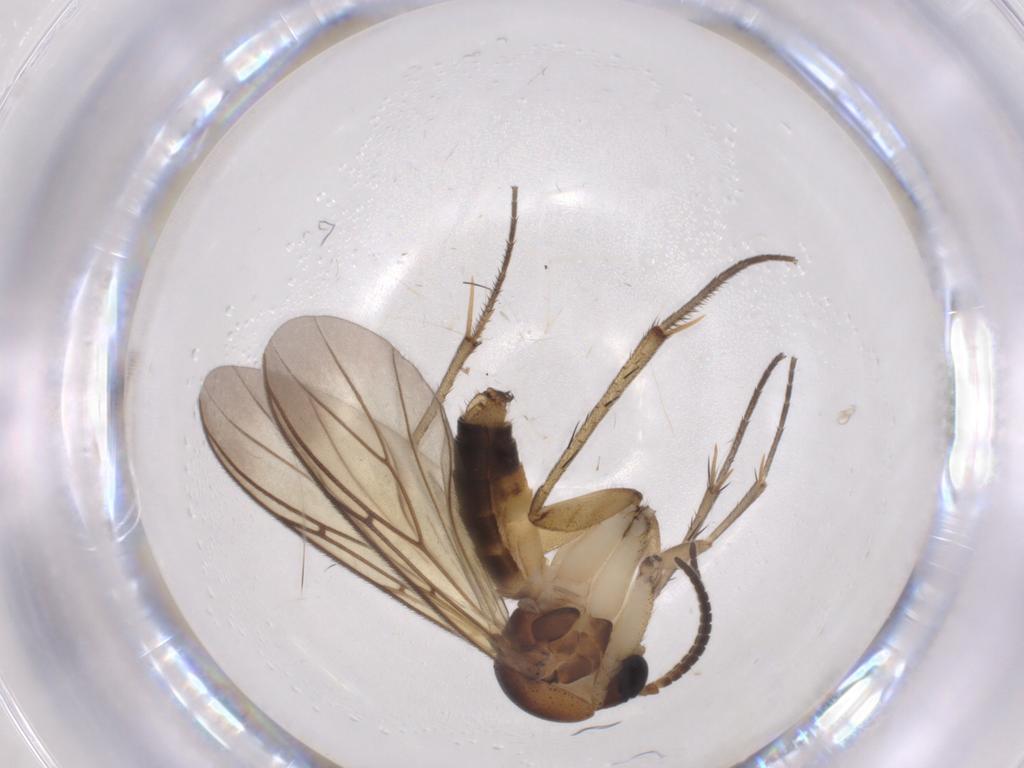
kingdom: Animalia
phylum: Arthropoda
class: Insecta
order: Diptera
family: Mycetophilidae
